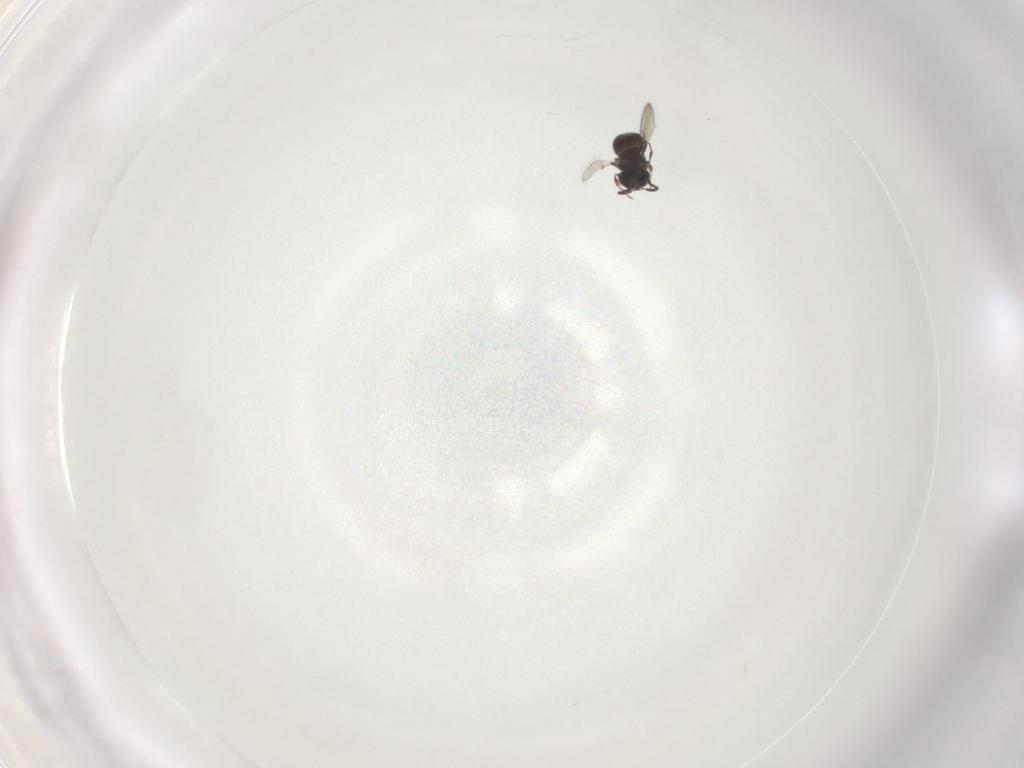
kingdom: Animalia
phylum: Arthropoda
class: Insecta
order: Hymenoptera
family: Scelionidae
